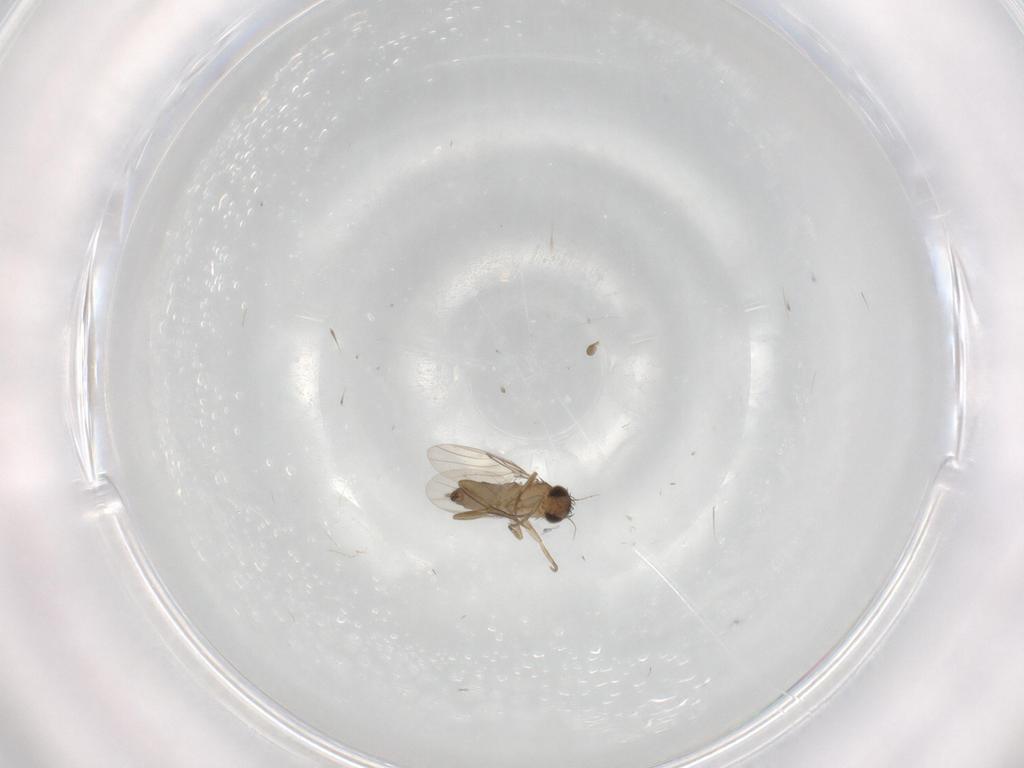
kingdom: Animalia
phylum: Arthropoda
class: Insecta
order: Diptera
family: Phoridae
